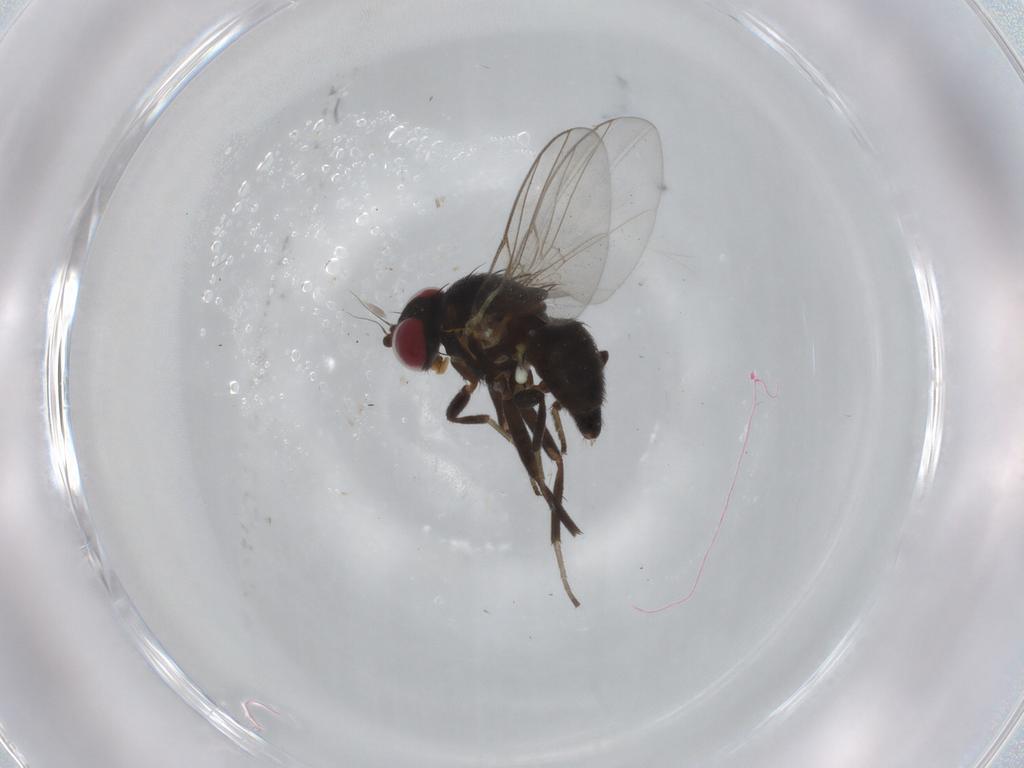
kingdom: Animalia
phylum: Arthropoda
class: Insecta
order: Diptera
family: Agromyzidae
